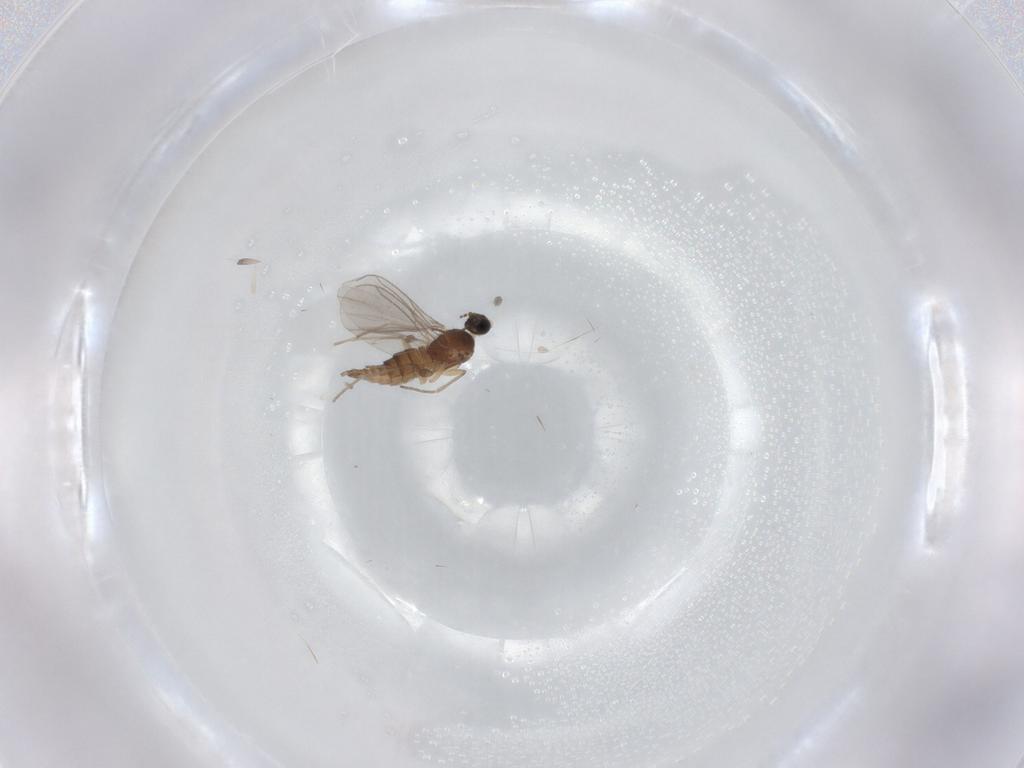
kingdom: Animalia
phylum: Arthropoda
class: Insecta
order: Diptera
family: Sciaridae
